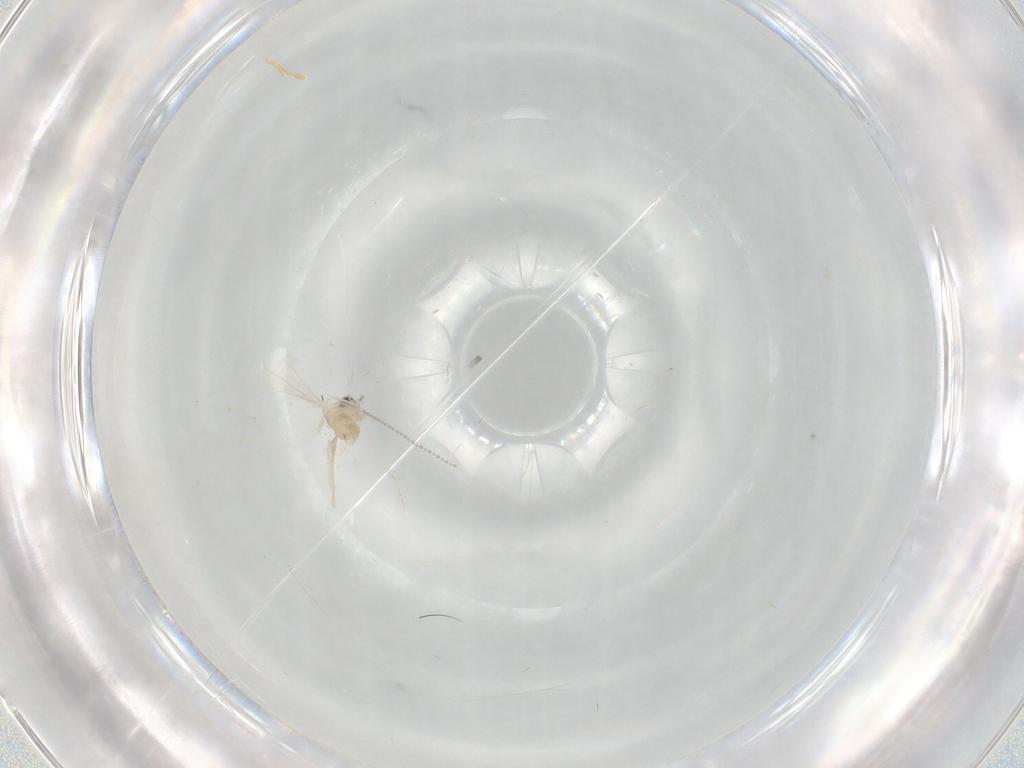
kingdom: Animalia
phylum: Arthropoda
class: Insecta
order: Diptera
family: Cecidomyiidae
